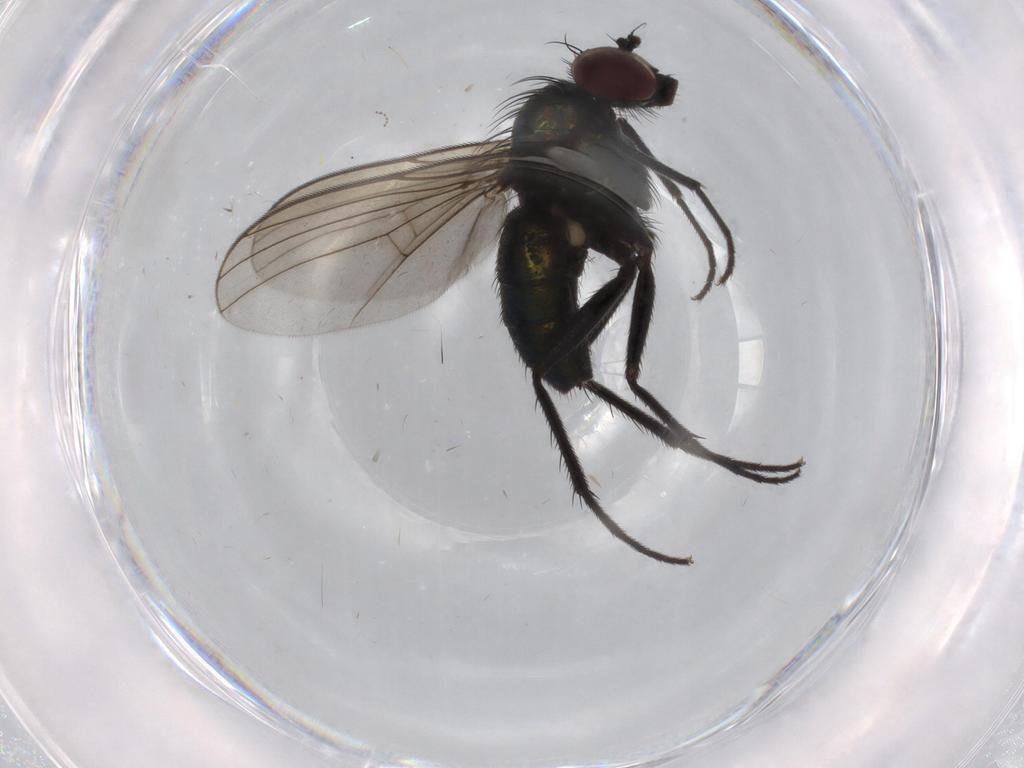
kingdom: Animalia
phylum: Arthropoda
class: Insecta
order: Diptera
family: Dolichopodidae
